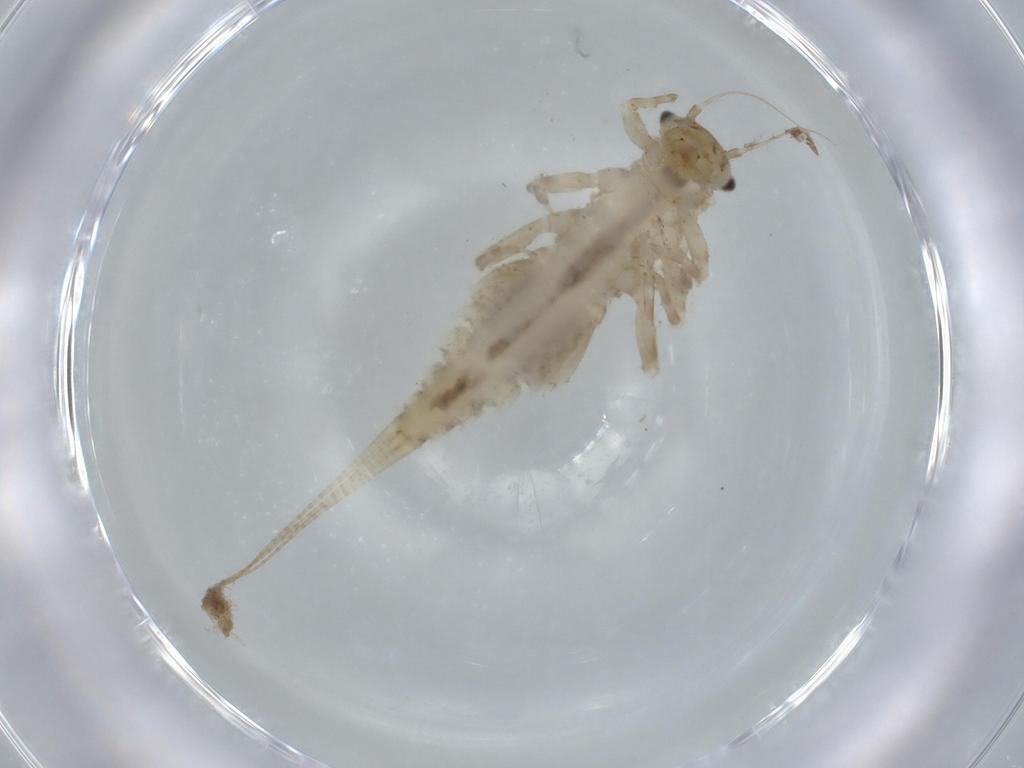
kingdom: Animalia
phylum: Arthropoda
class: Insecta
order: Ephemeroptera
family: Caenidae
